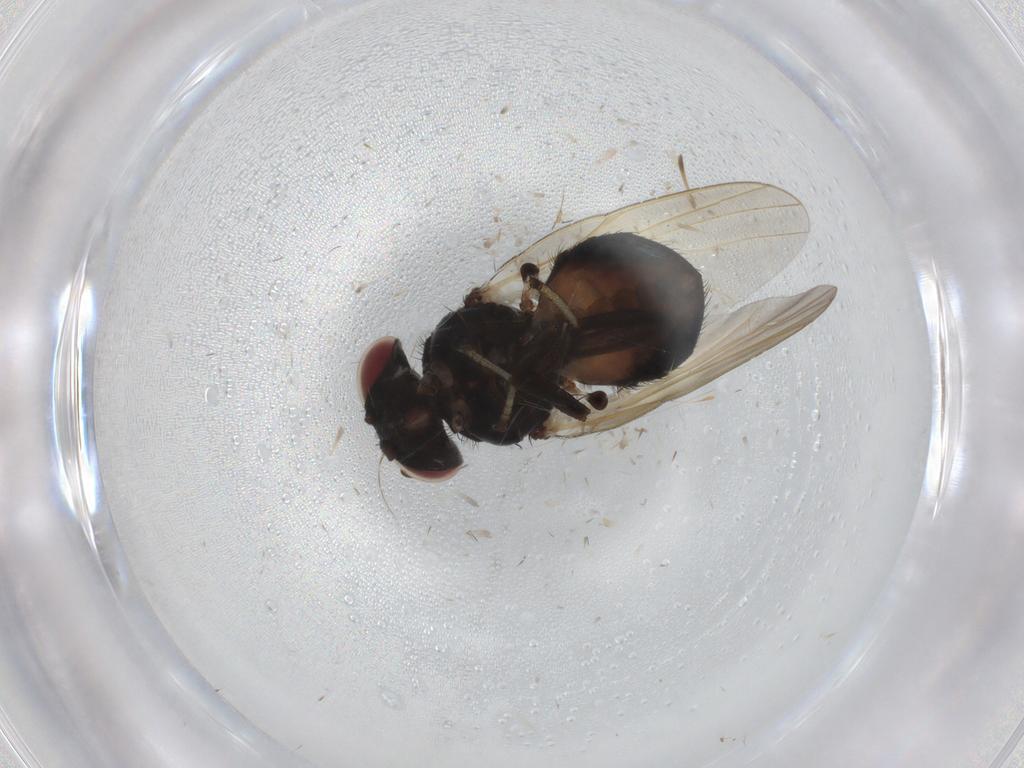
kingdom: Animalia
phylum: Arthropoda
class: Insecta
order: Diptera
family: Lonchaeidae
